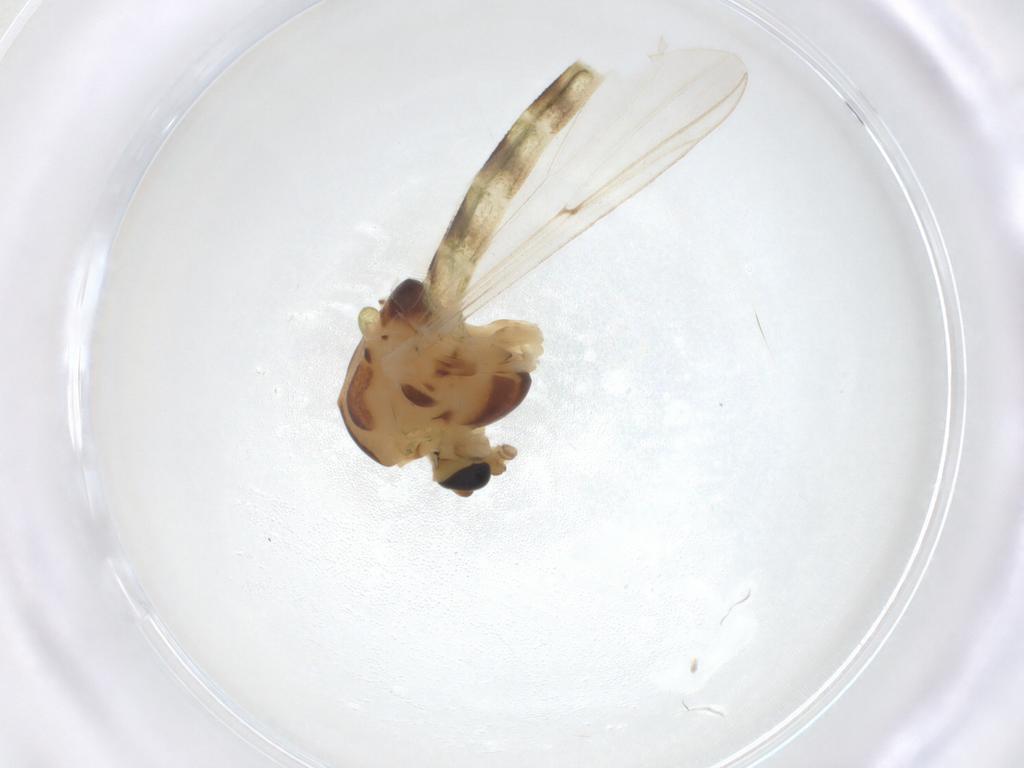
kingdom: Animalia
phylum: Arthropoda
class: Insecta
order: Diptera
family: Chironomidae
